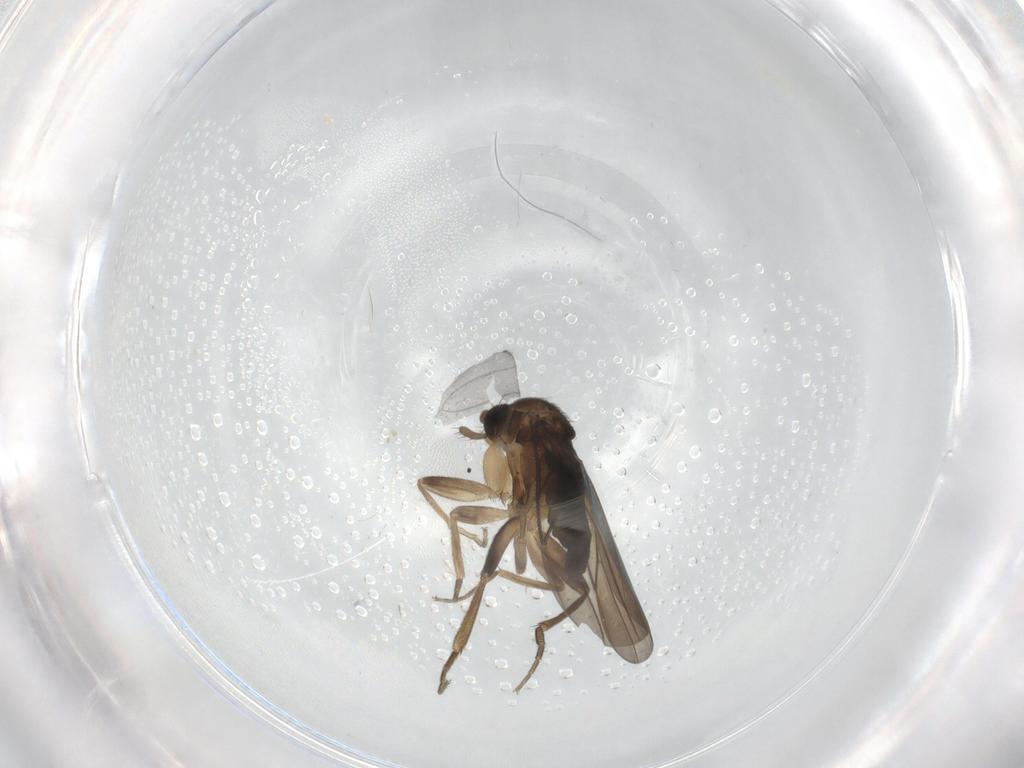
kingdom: Animalia
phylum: Arthropoda
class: Insecta
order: Diptera
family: Phoridae
